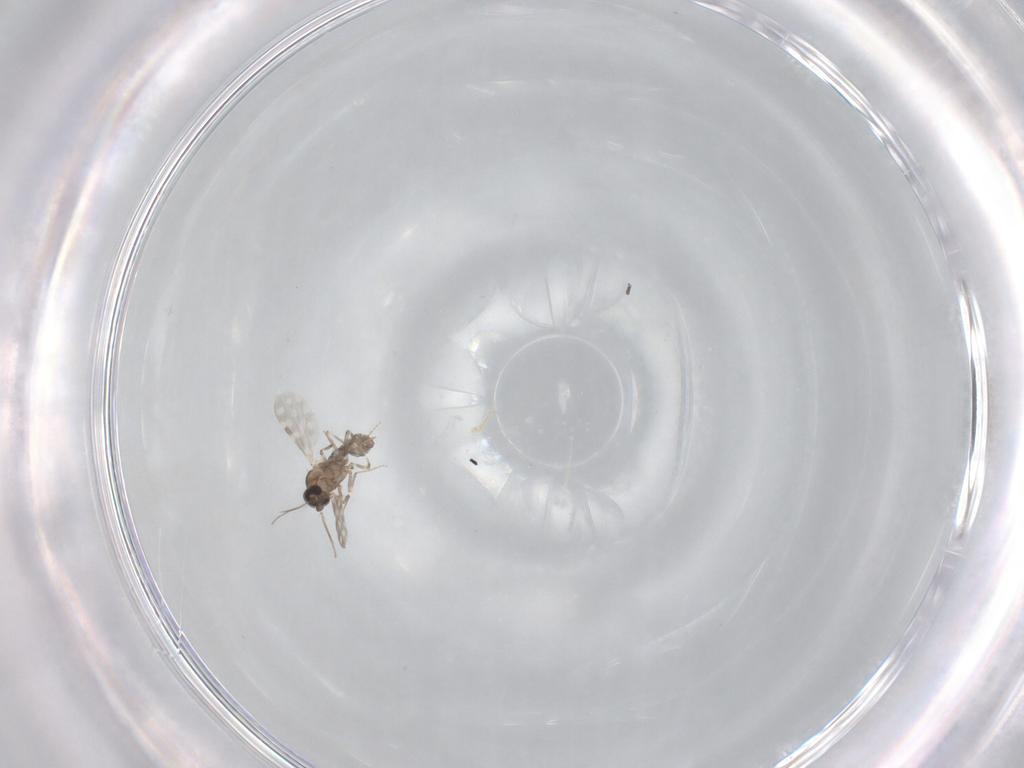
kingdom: Animalia
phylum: Arthropoda
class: Insecta
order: Diptera
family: Sciaridae
